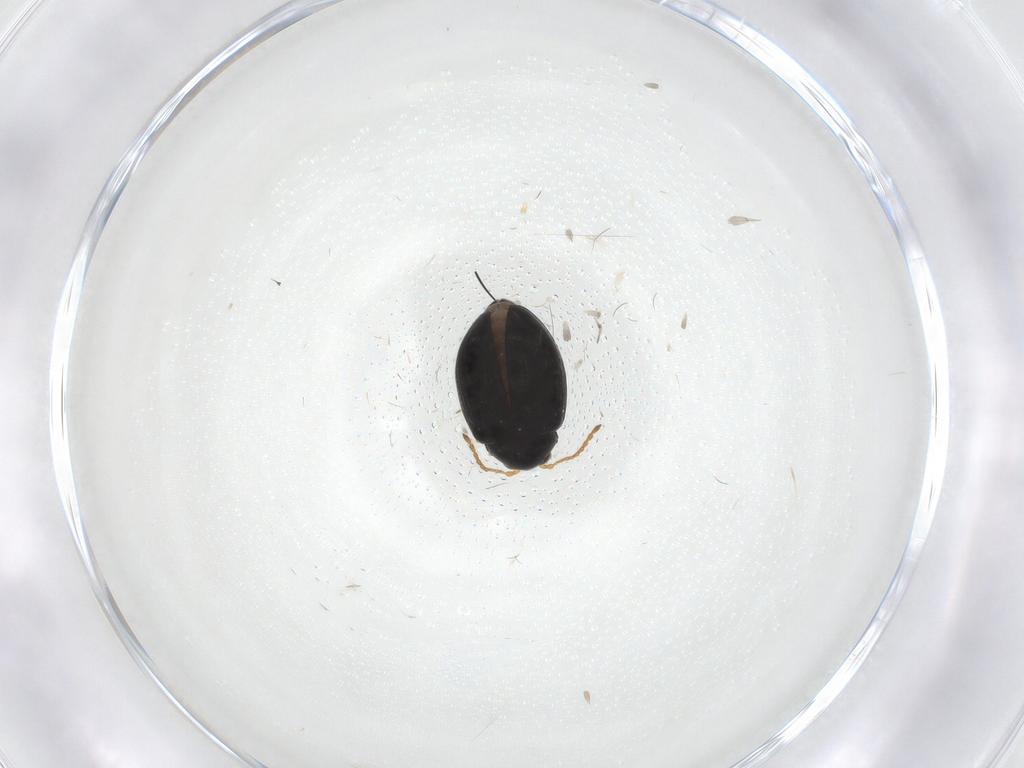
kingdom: Animalia
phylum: Arthropoda
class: Insecta
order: Coleoptera
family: Chrysomelidae
